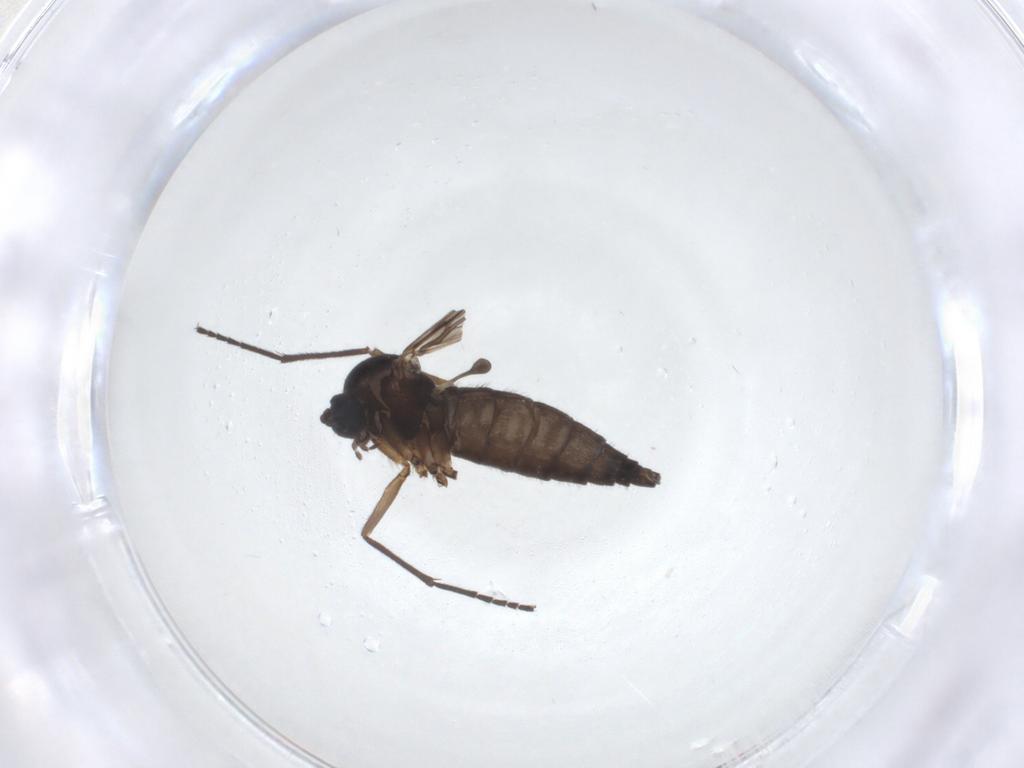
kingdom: Animalia
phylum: Arthropoda
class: Insecta
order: Diptera
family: Sciaridae
